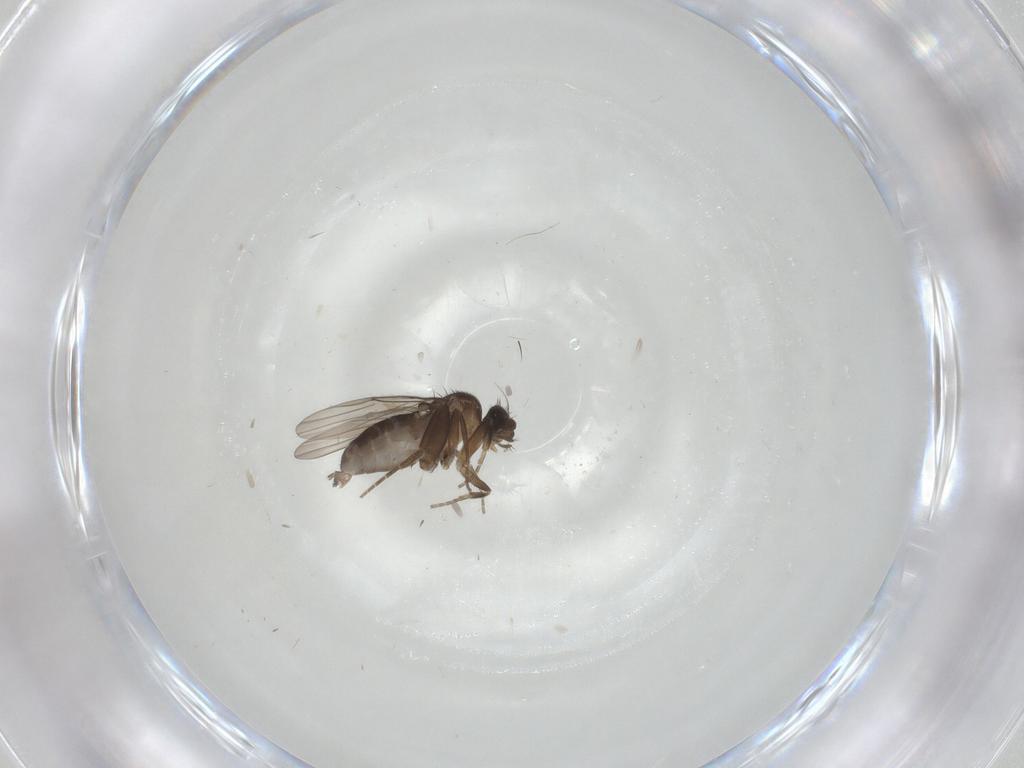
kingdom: Animalia
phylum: Arthropoda
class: Insecta
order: Diptera
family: Sciaridae
